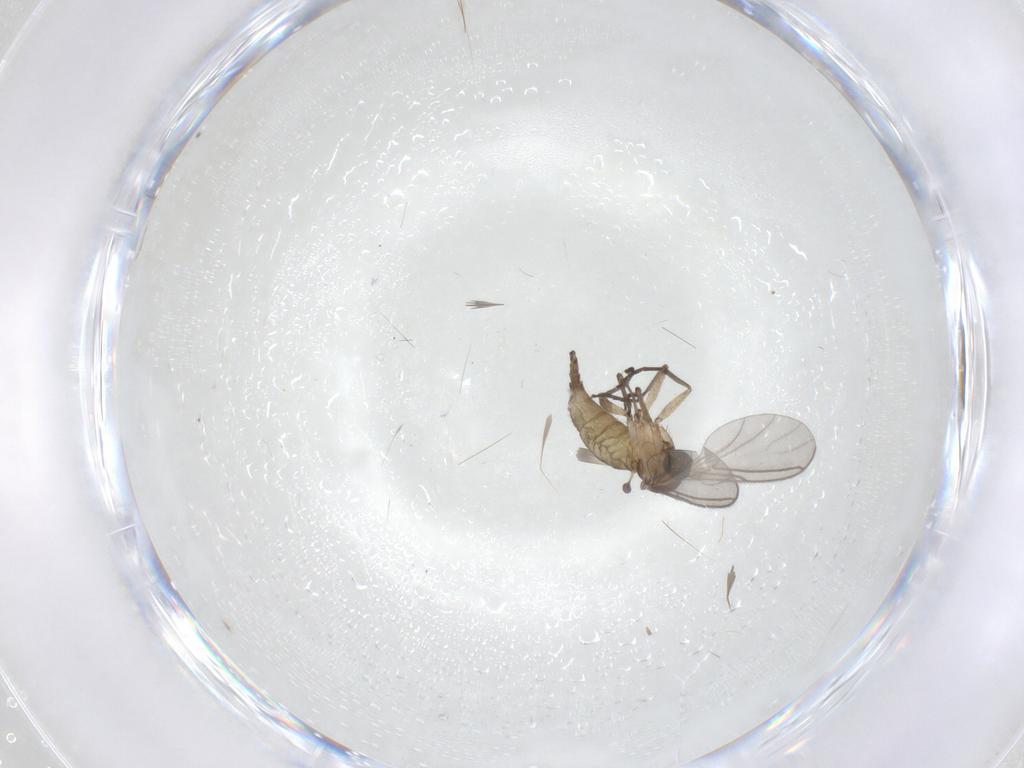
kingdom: Animalia
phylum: Arthropoda
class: Insecta
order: Diptera
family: Sciaridae
